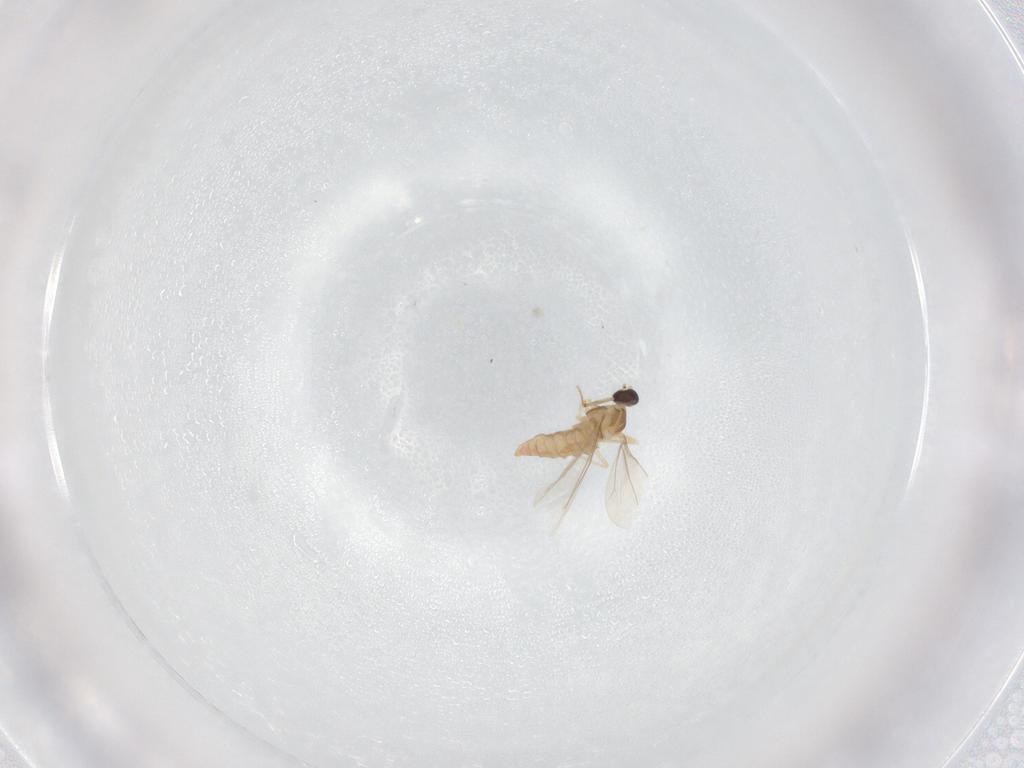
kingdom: Animalia
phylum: Arthropoda
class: Insecta
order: Diptera
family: Cecidomyiidae
